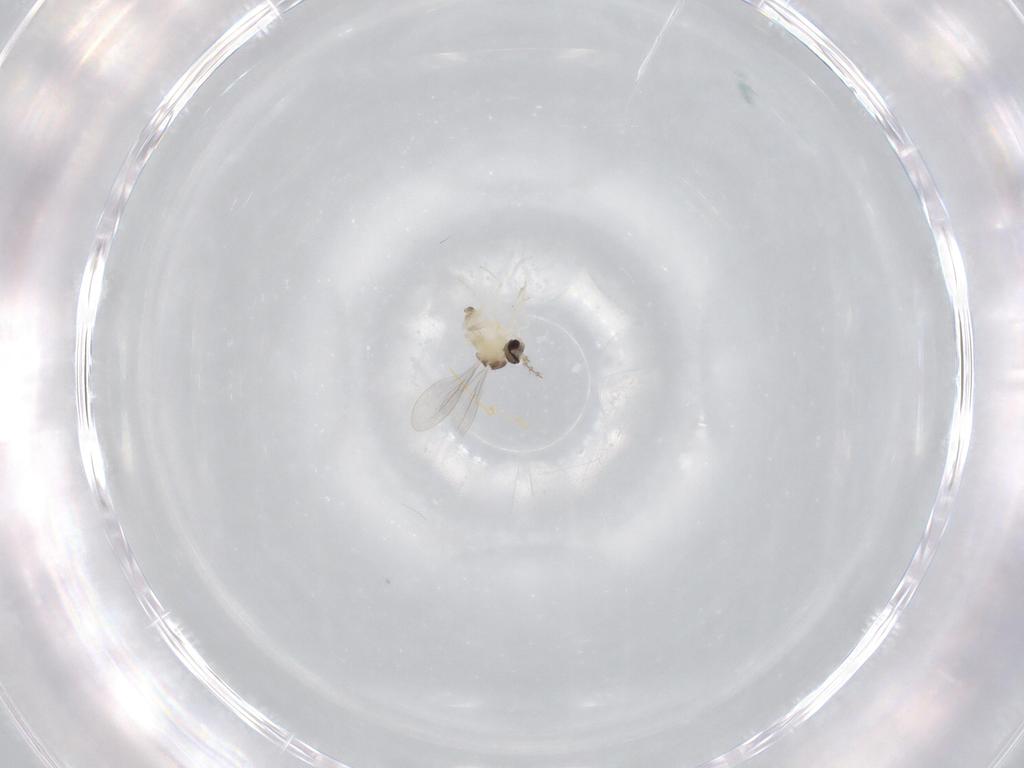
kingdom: Animalia
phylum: Arthropoda
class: Insecta
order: Diptera
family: Cecidomyiidae
